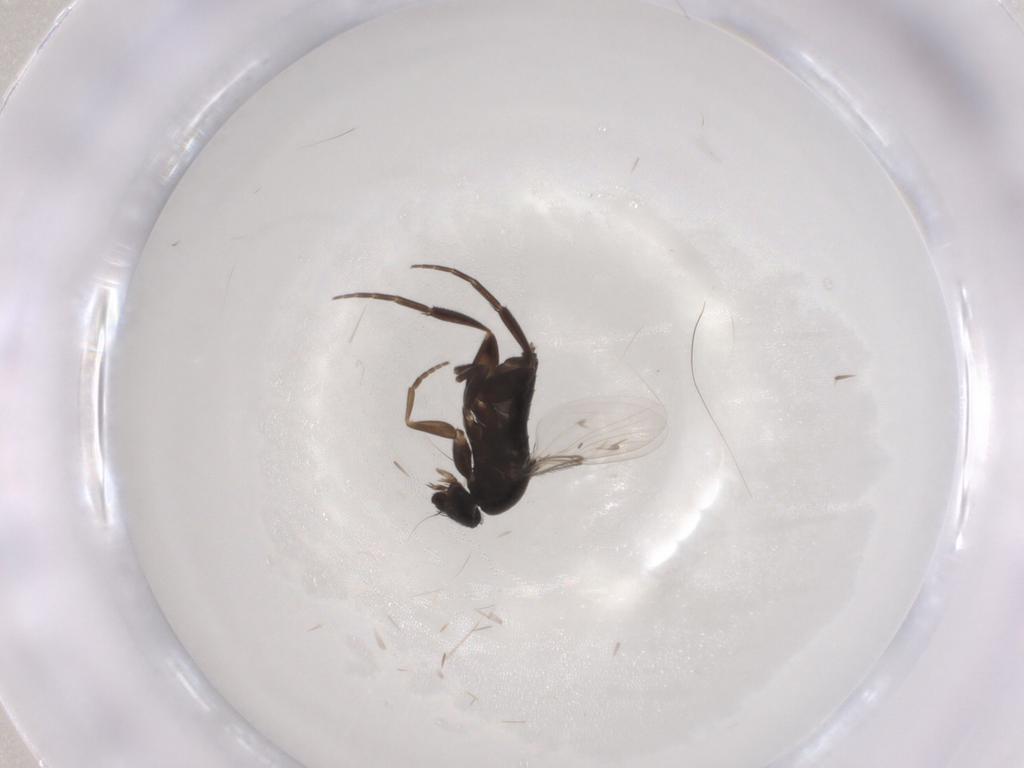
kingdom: Animalia
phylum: Arthropoda
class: Insecta
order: Diptera
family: Phoridae
